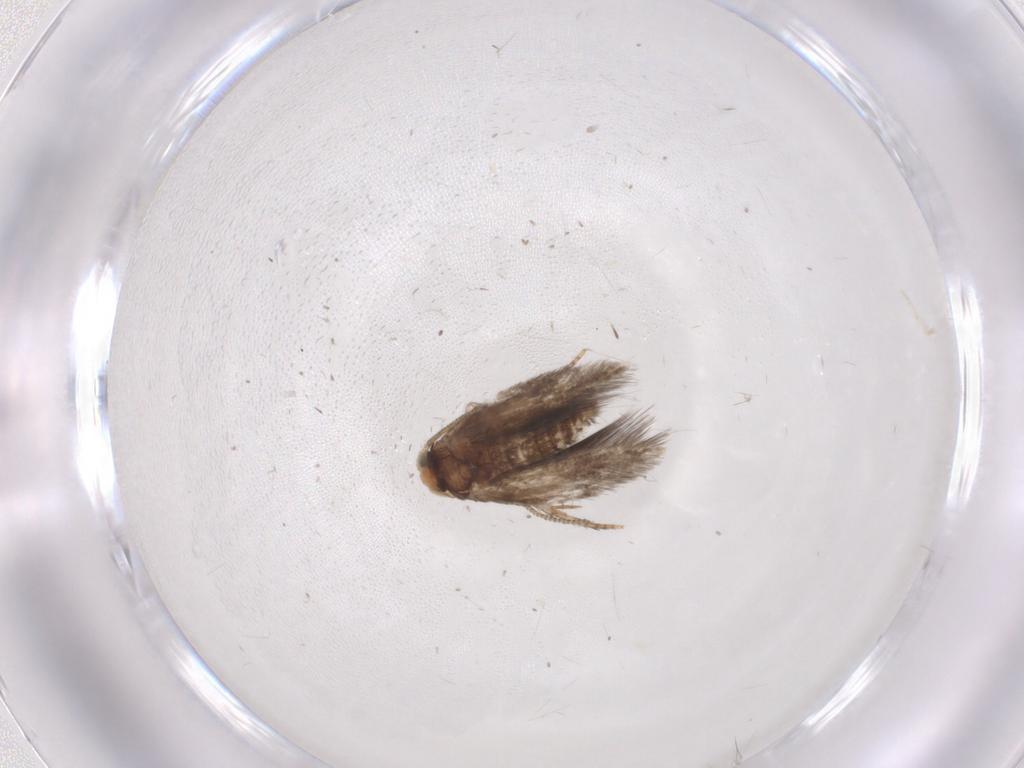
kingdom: Animalia
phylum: Arthropoda
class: Insecta
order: Lepidoptera
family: Nepticulidae
